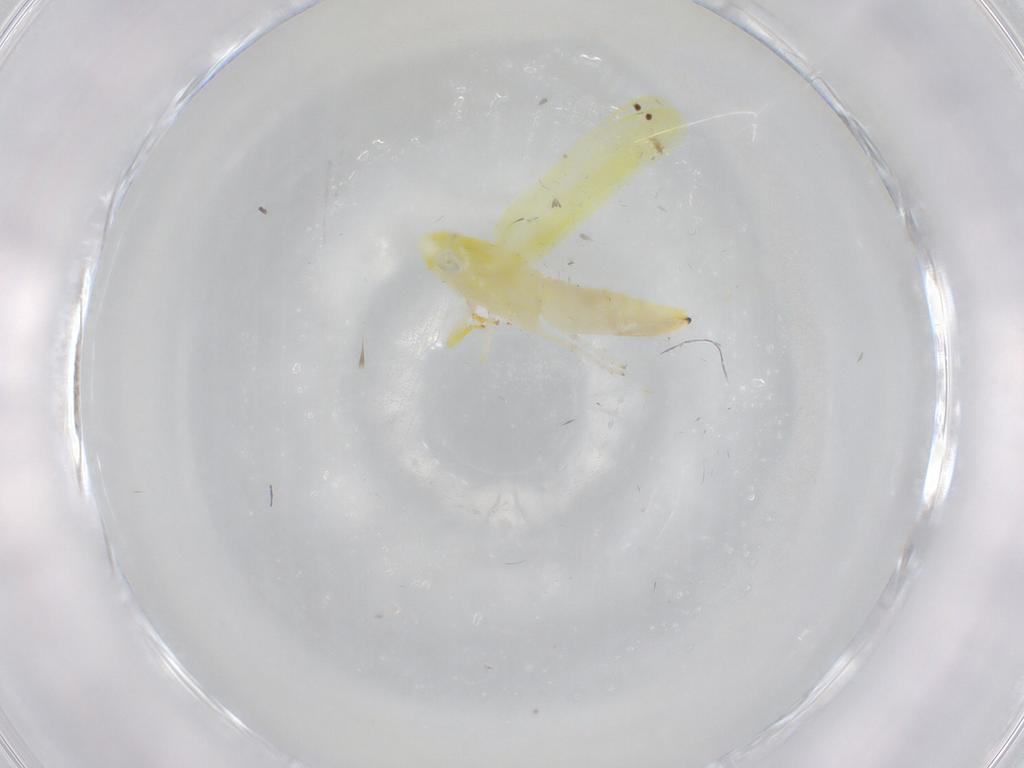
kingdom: Animalia
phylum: Arthropoda
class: Insecta
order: Hemiptera
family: Cicadellidae
